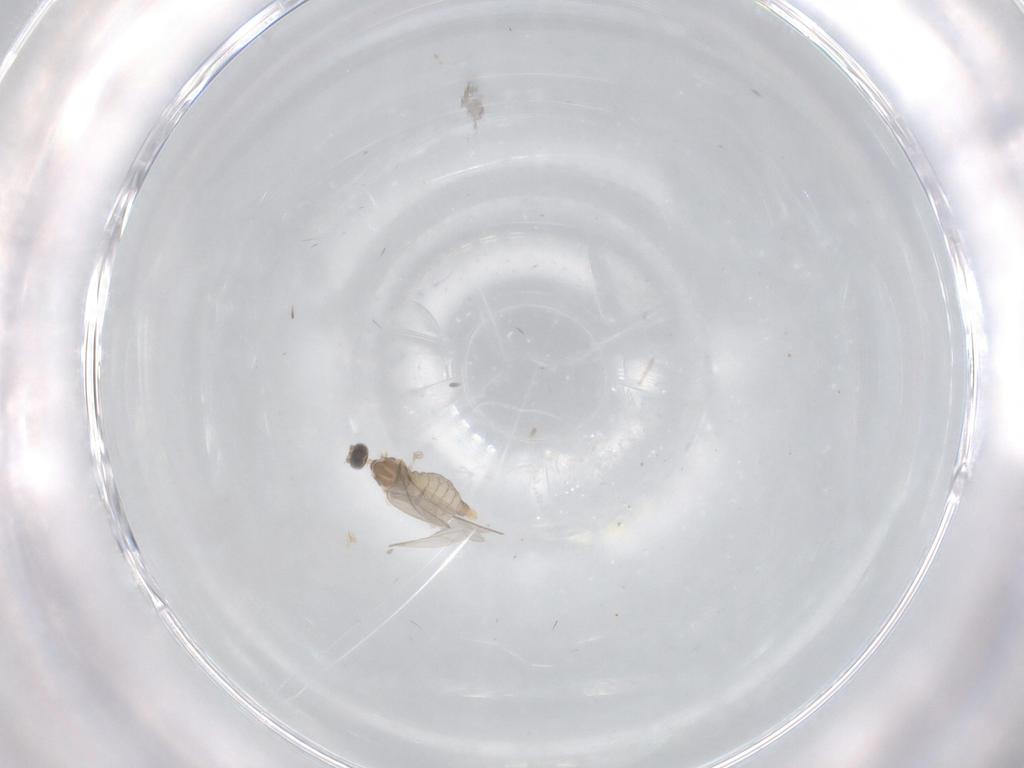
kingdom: Animalia
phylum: Arthropoda
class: Insecta
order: Diptera
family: Cecidomyiidae
